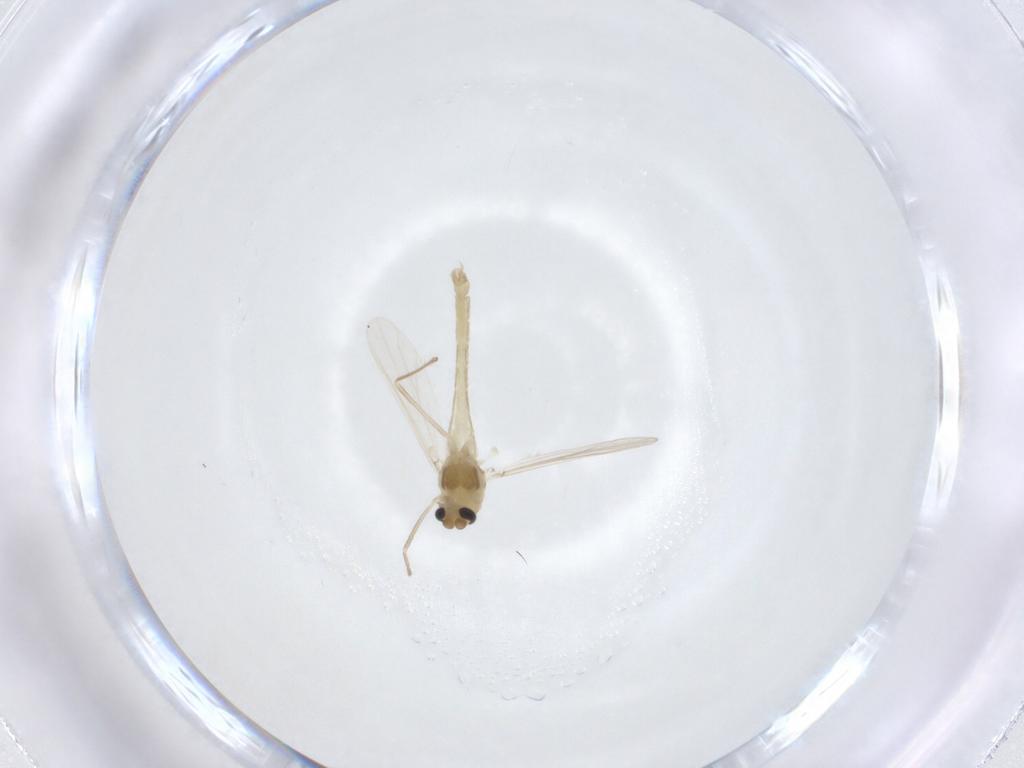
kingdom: Animalia
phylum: Arthropoda
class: Insecta
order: Diptera
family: Chironomidae
